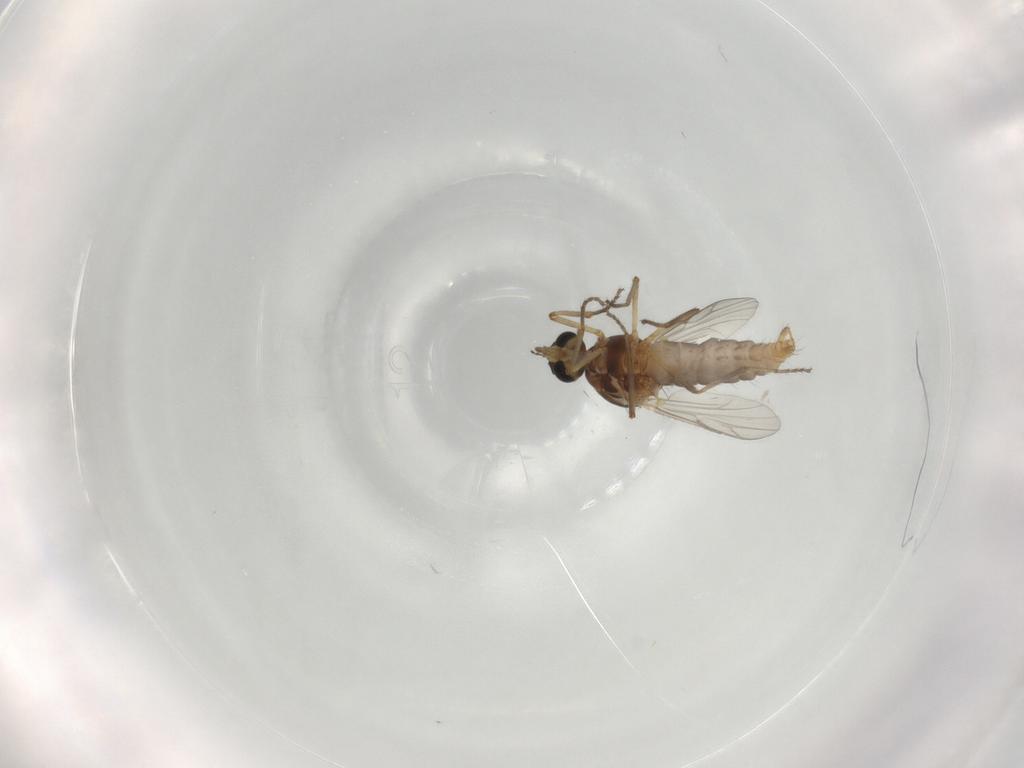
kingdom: Animalia
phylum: Arthropoda
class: Insecta
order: Diptera
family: Ceratopogonidae
